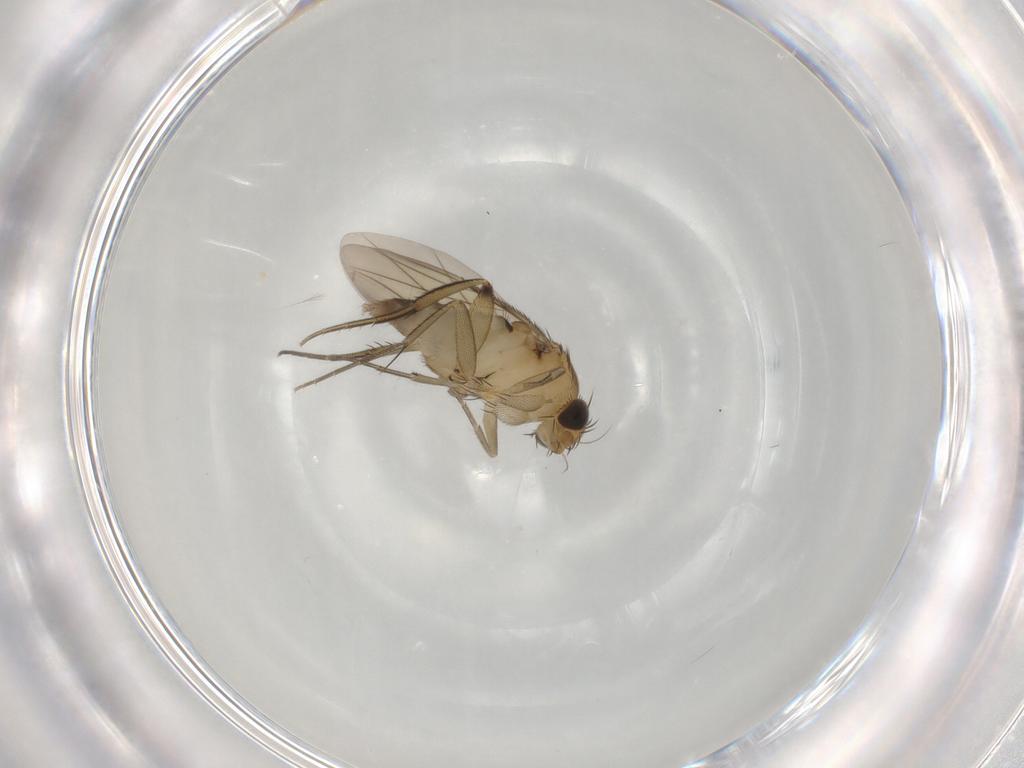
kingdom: Animalia
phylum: Arthropoda
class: Insecta
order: Diptera
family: Phoridae
